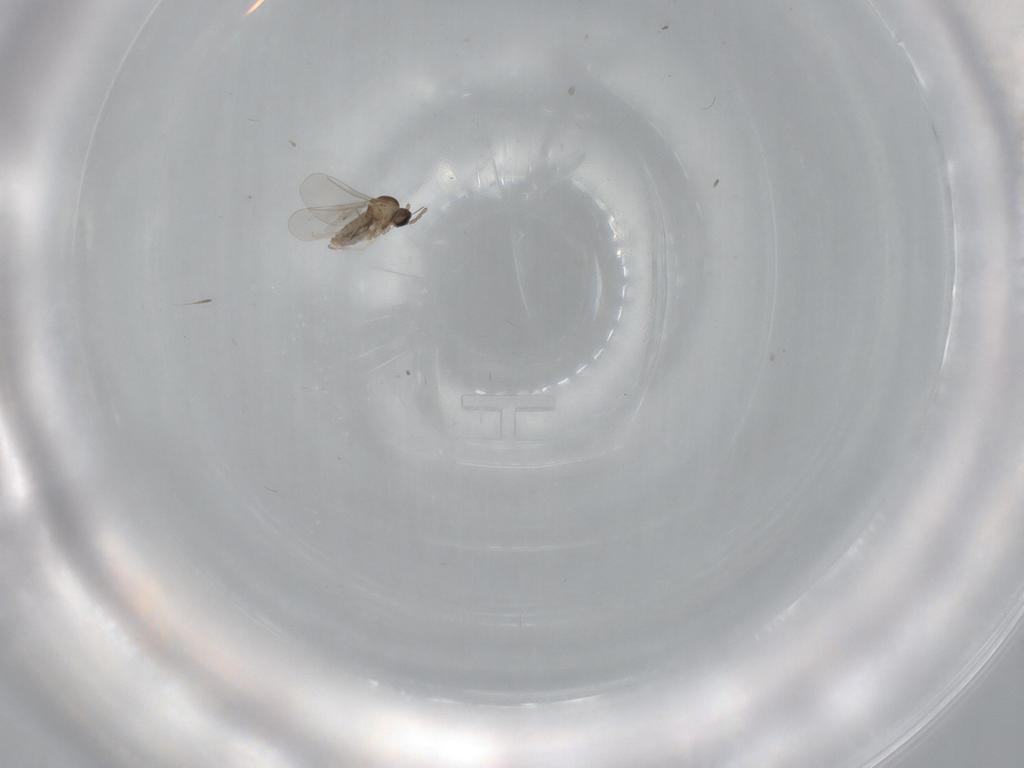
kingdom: Animalia
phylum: Arthropoda
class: Insecta
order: Diptera
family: Cecidomyiidae
